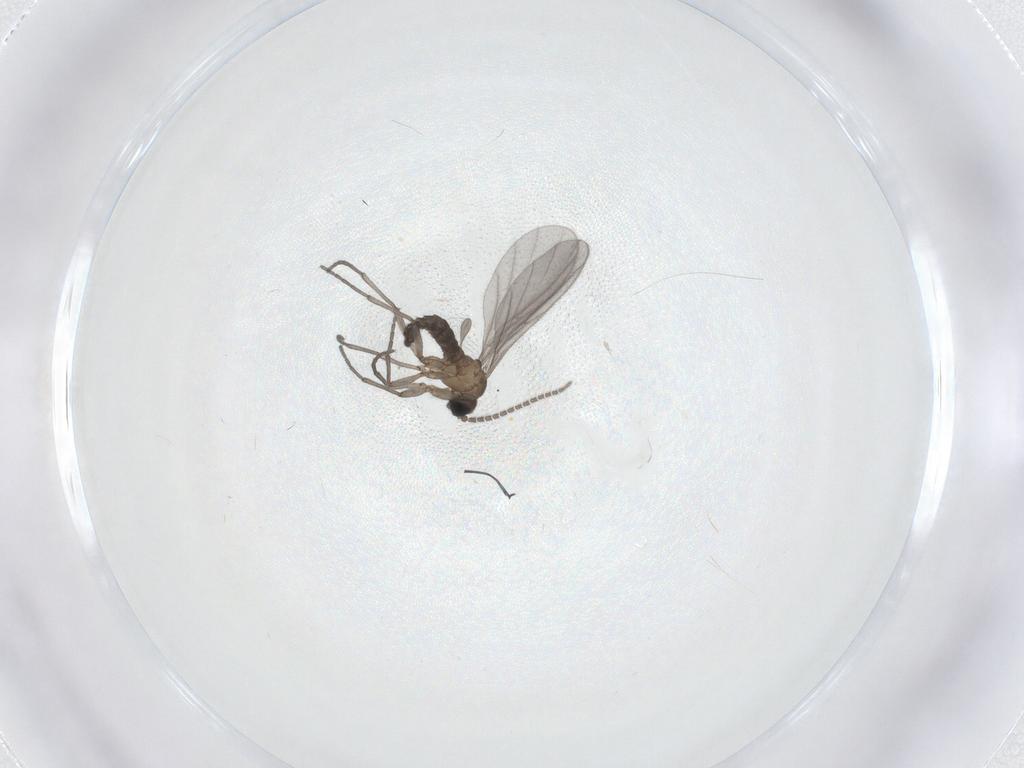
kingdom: Animalia
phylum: Arthropoda
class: Insecta
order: Diptera
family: Sciaridae
